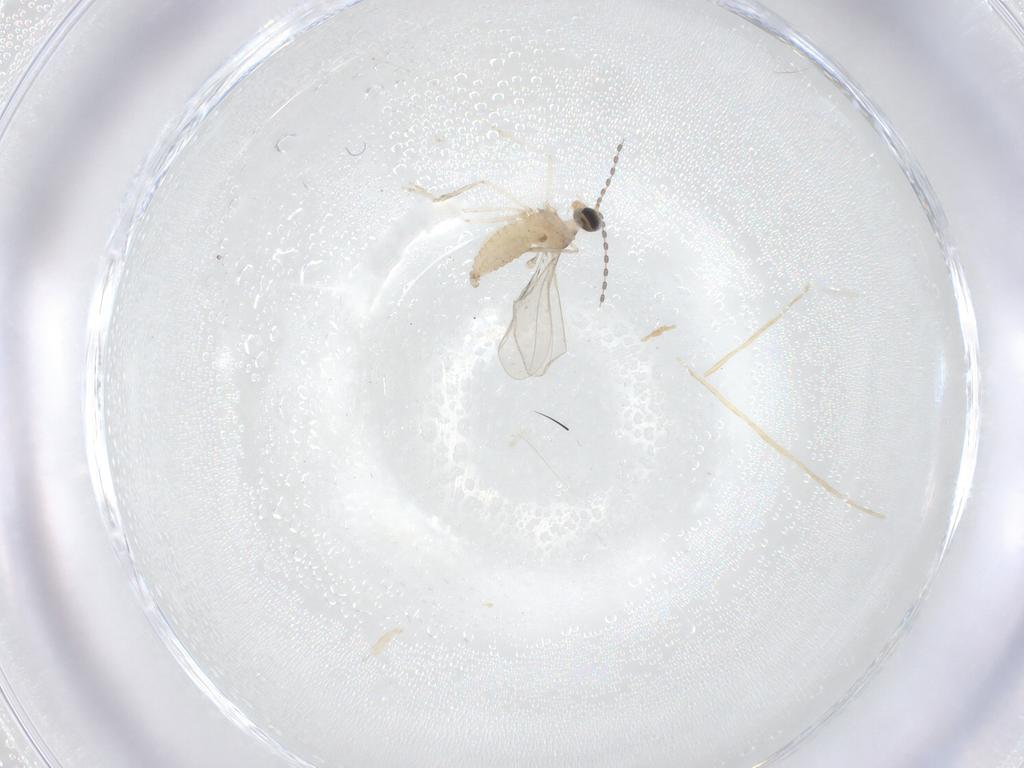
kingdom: Animalia
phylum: Arthropoda
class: Insecta
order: Diptera
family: Cecidomyiidae
